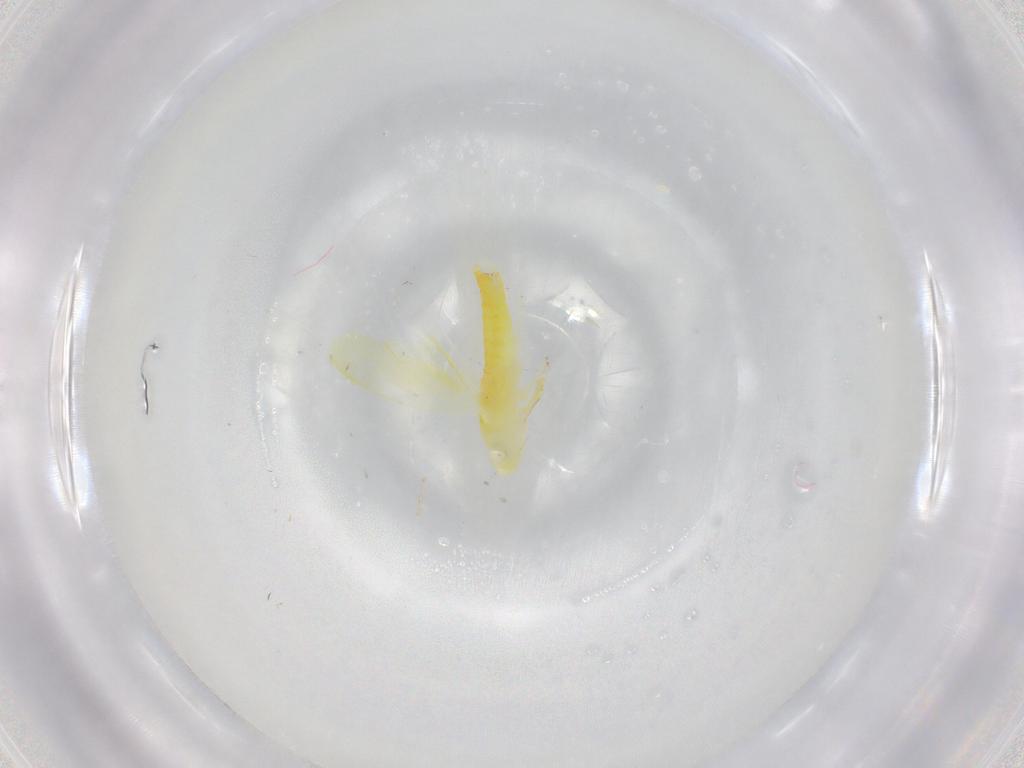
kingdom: Animalia
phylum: Arthropoda
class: Insecta
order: Hemiptera
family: Cicadellidae
